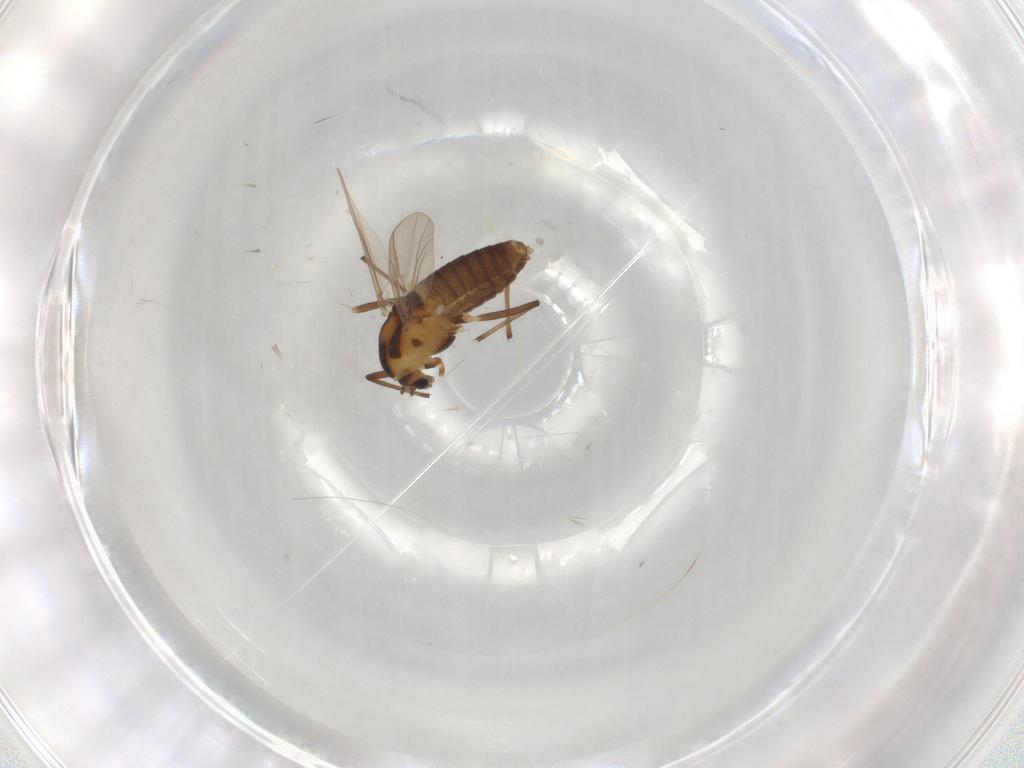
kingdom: Animalia
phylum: Arthropoda
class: Insecta
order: Diptera
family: Chironomidae
